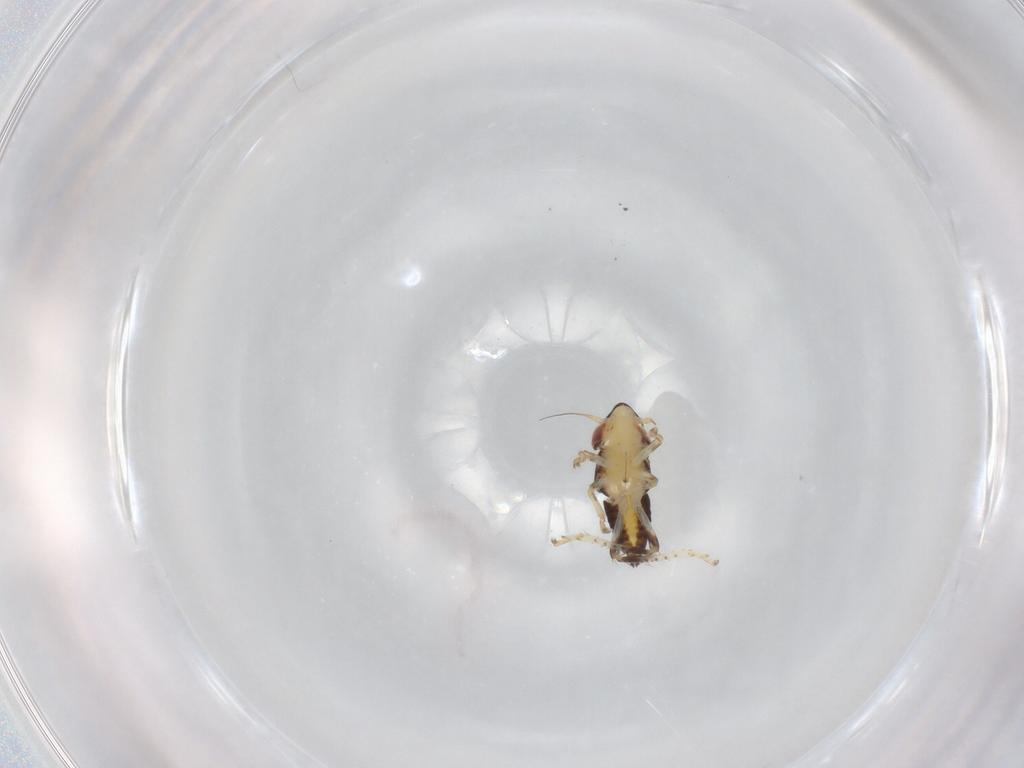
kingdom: Animalia
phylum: Arthropoda
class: Insecta
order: Hemiptera
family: Cicadellidae
